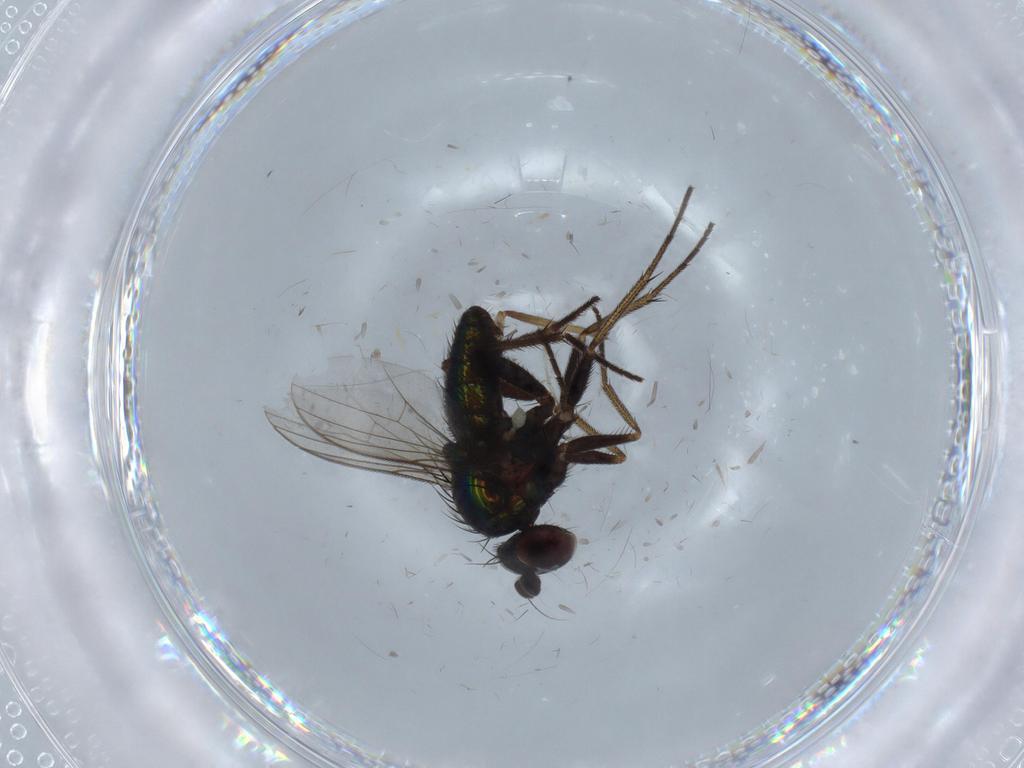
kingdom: Animalia
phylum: Arthropoda
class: Insecta
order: Diptera
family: Dolichopodidae
